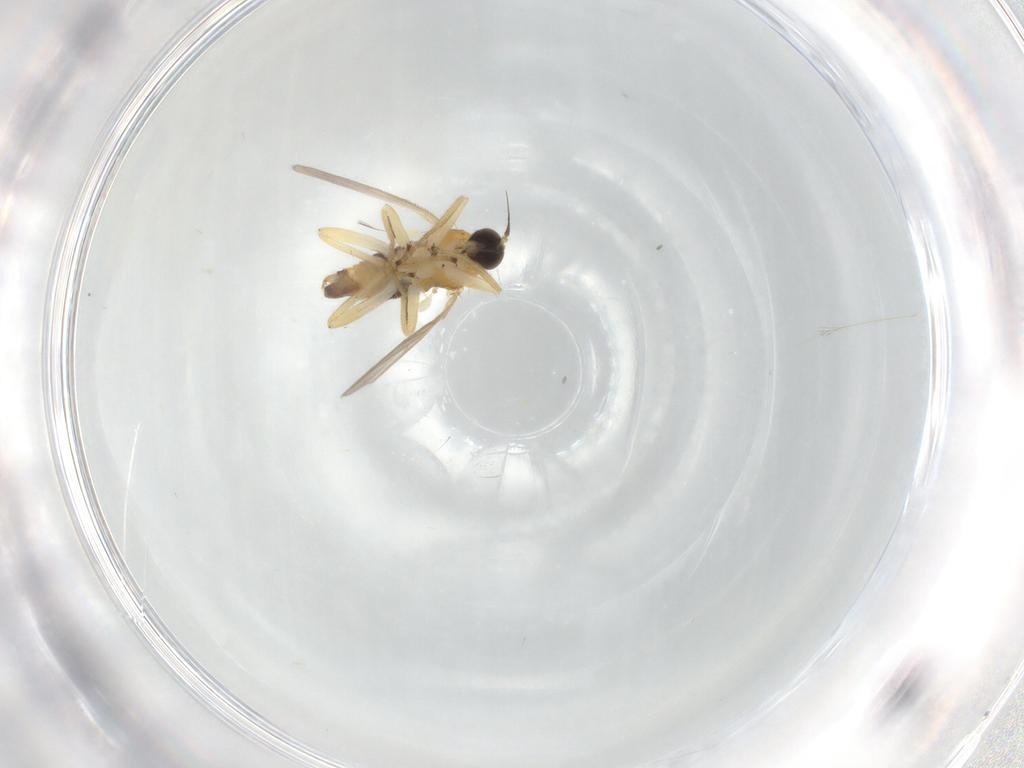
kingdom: Animalia
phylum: Arthropoda
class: Insecta
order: Diptera
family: Hybotidae
